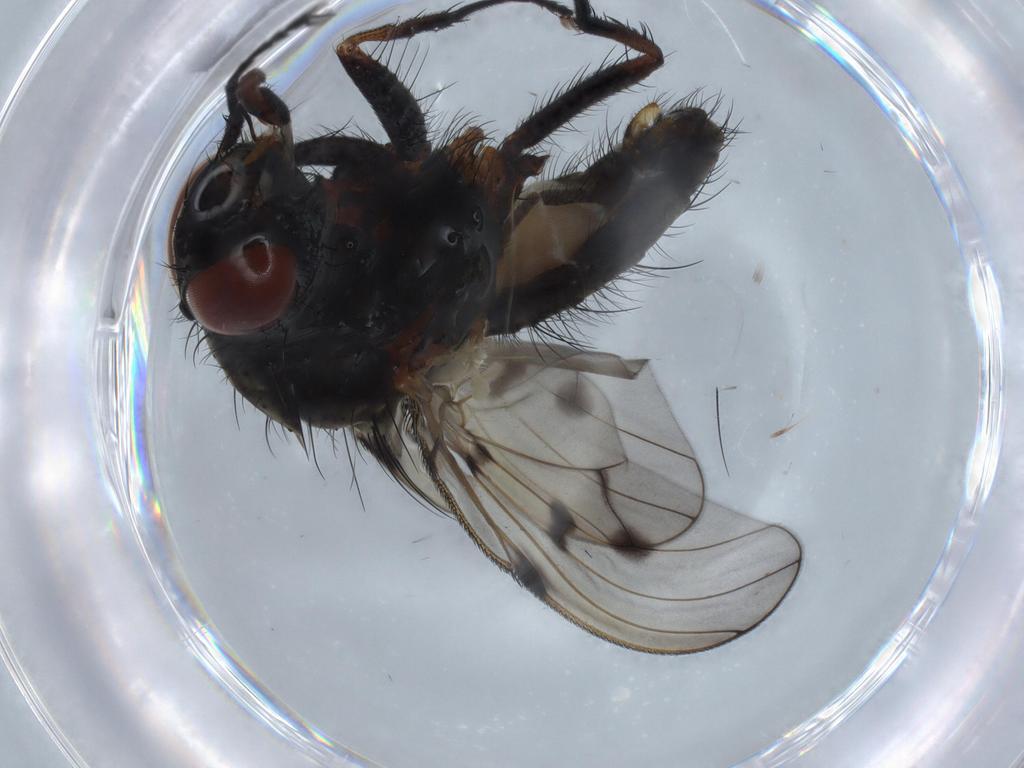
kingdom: Animalia
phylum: Arthropoda
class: Insecta
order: Diptera
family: Anthomyiidae
